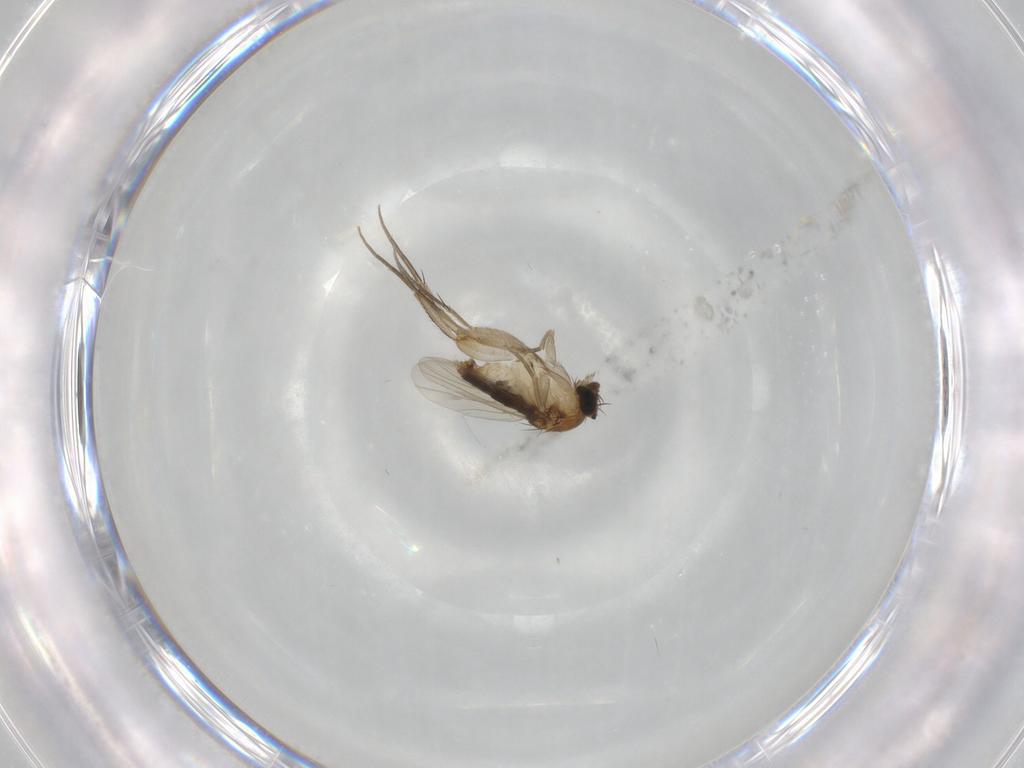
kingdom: Animalia
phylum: Arthropoda
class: Insecta
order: Diptera
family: Phoridae
